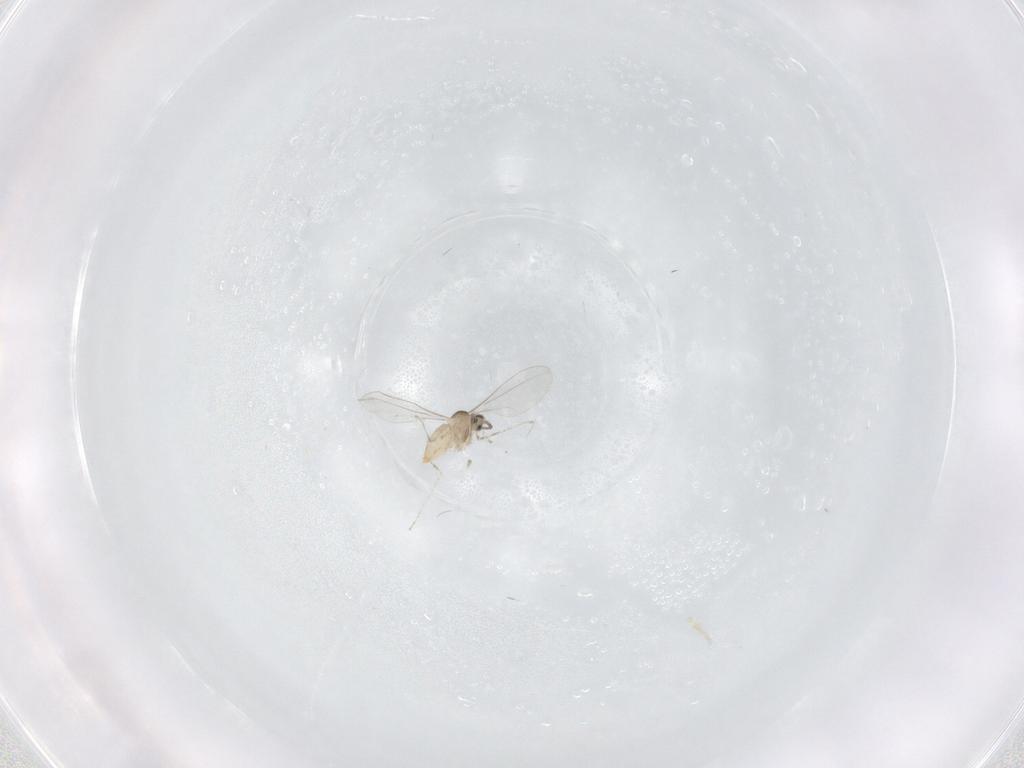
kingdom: Animalia
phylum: Arthropoda
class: Insecta
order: Diptera
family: Cecidomyiidae
